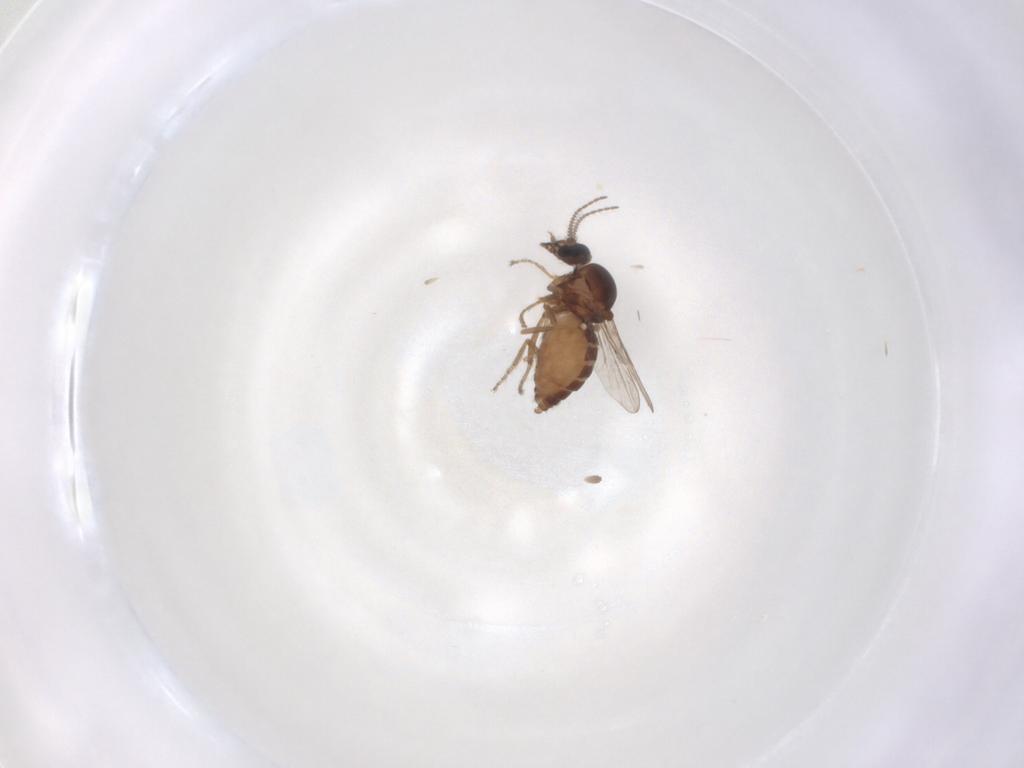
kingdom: Animalia
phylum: Arthropoda
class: Insecta
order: Diptera
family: Ceratopogonidae
